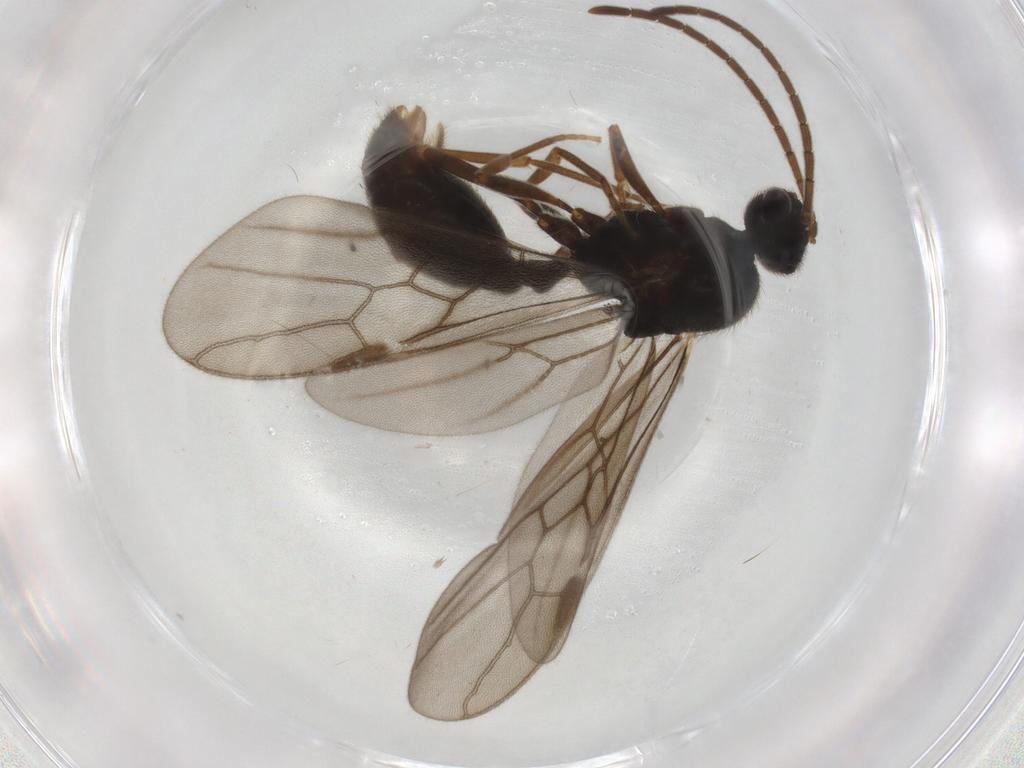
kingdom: Animalia
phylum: Arthropoda
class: Insecta
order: Hymenoptera
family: Formicidae
